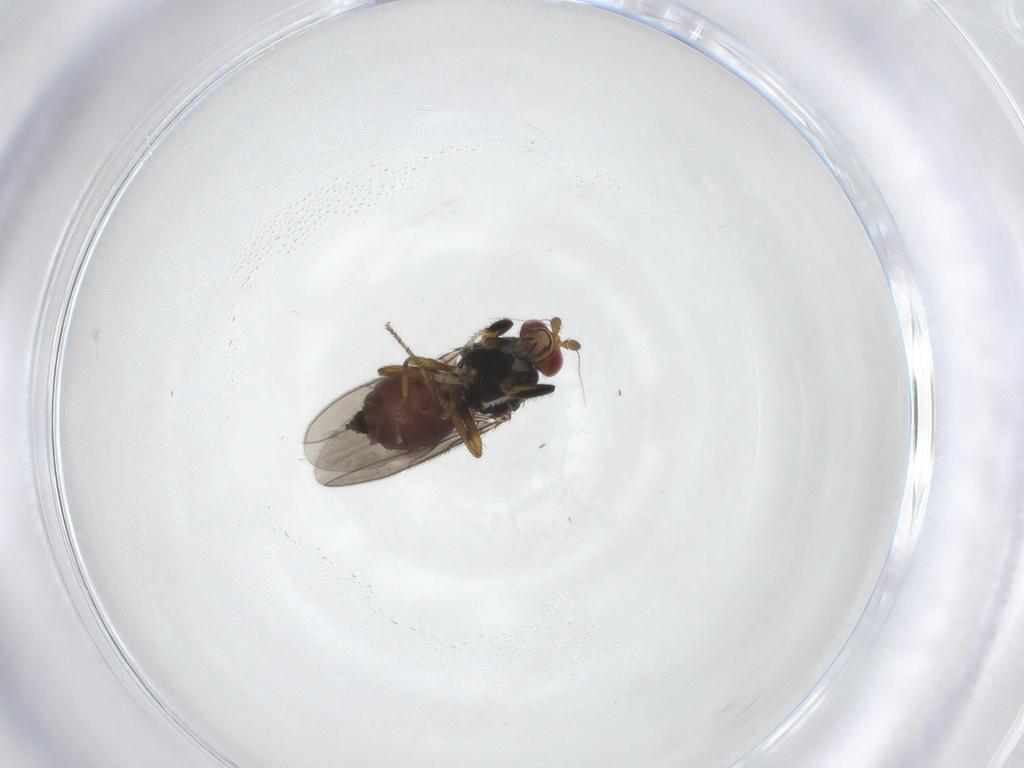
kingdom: Animalia
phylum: Arthropoda
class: Insecta
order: Diptera
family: Sphaeroceridae
